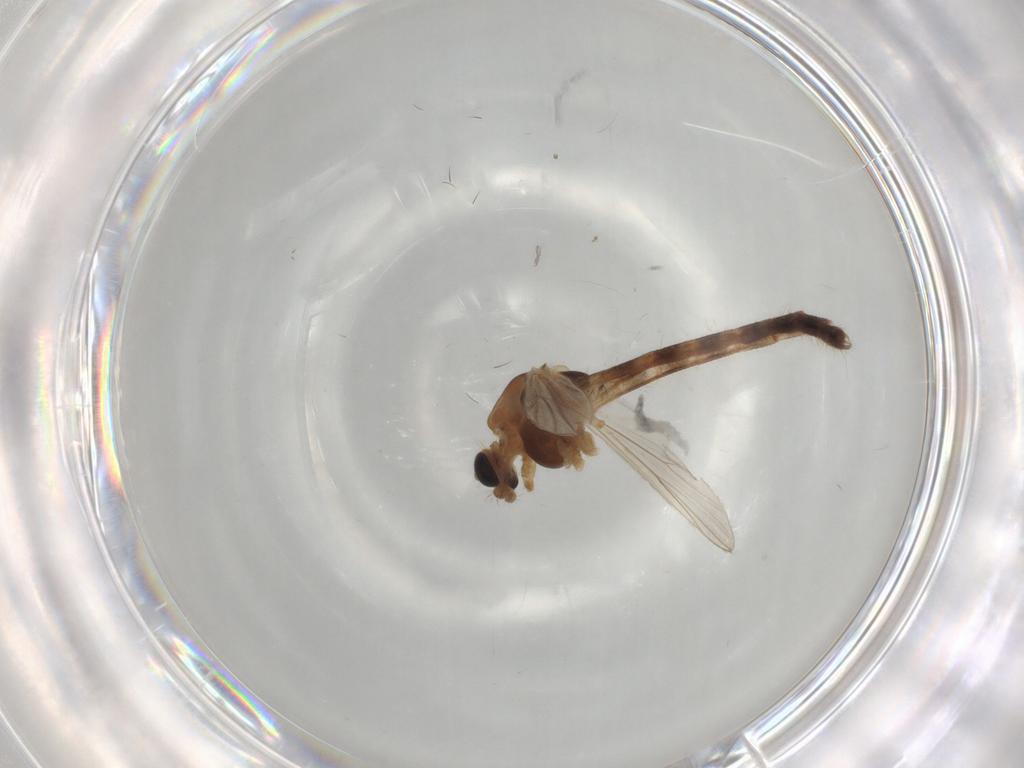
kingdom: Animalia
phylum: Arthropoda
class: Insecta
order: Diptera
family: Chironomidae
